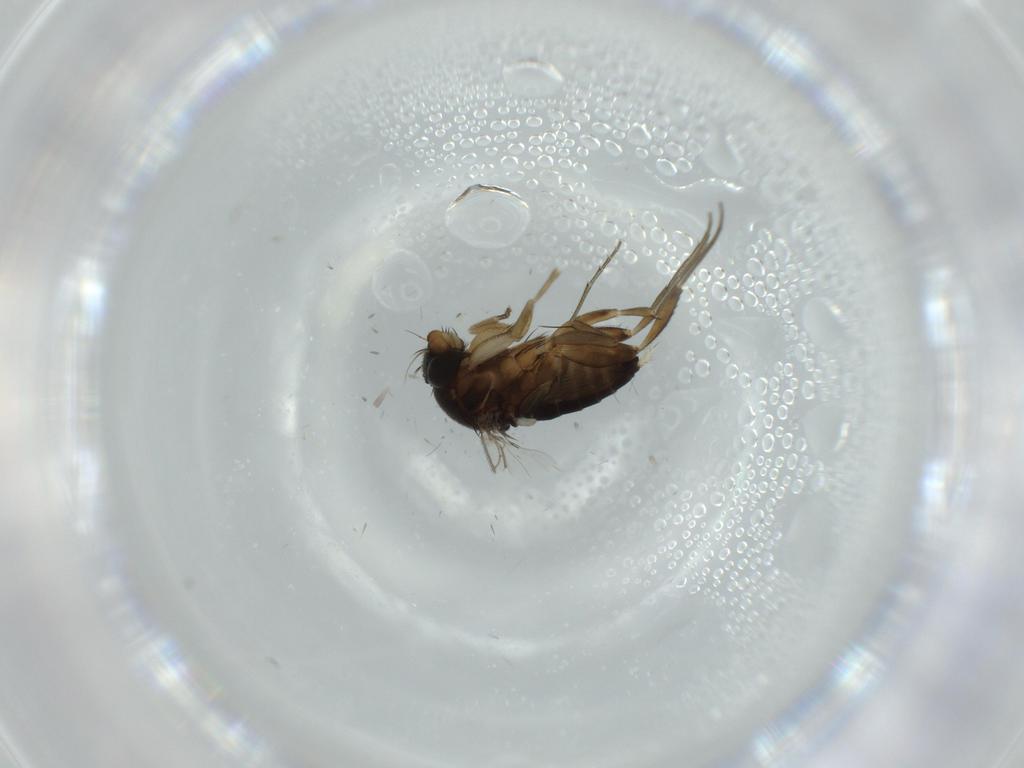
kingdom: Animalia
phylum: Arthropoda
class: Insecta
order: Diptera
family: Phoridae
